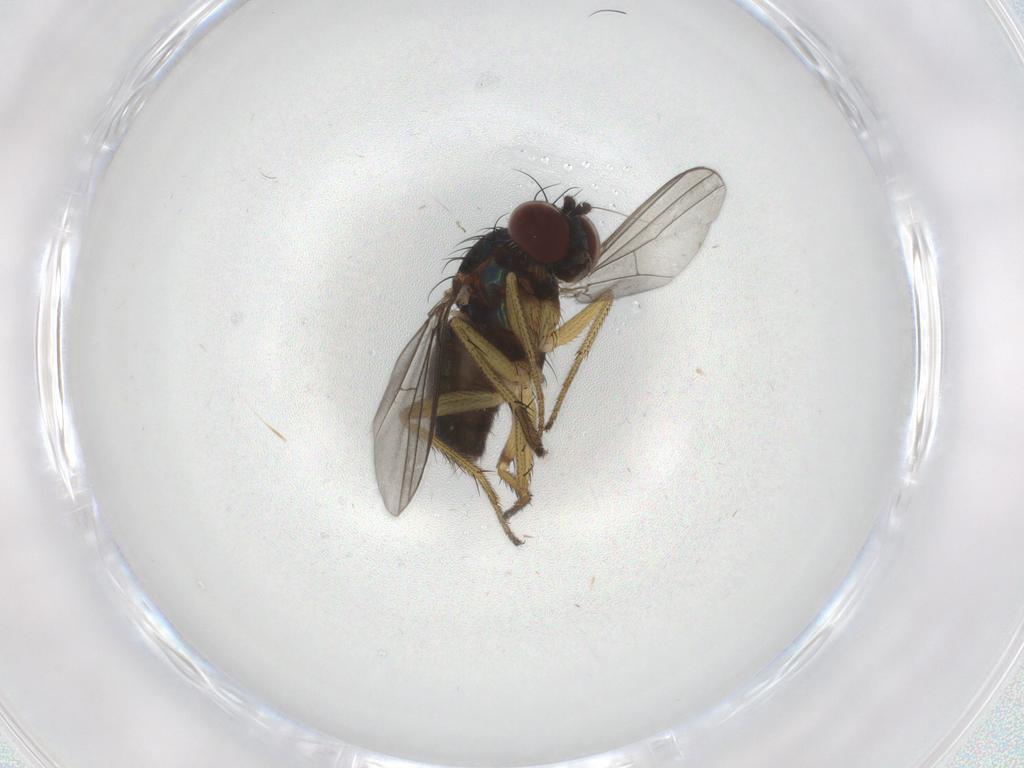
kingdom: Animalia
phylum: Arthropoda
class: Insecta
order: Diptera
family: Dolichopodidae
